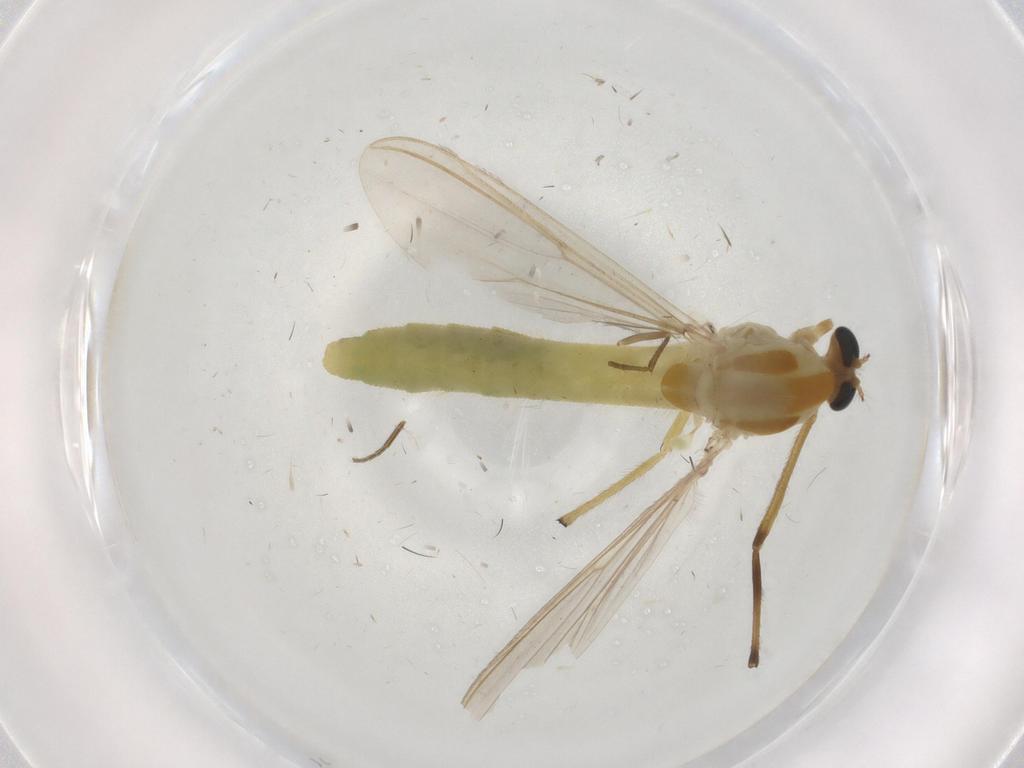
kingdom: Animalia
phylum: Arthropoda
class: Insecta
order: Diptera
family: Chironomidae
